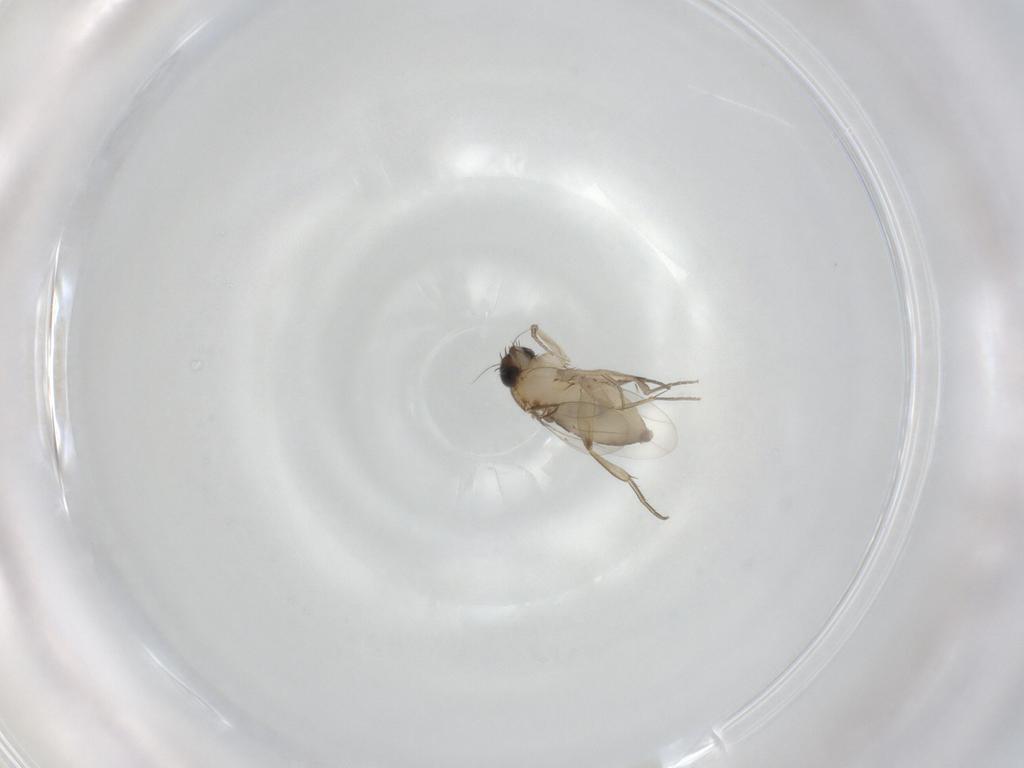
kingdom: Animalia
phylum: Arthropoda
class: Insecta
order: Diptera
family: Phoridae
